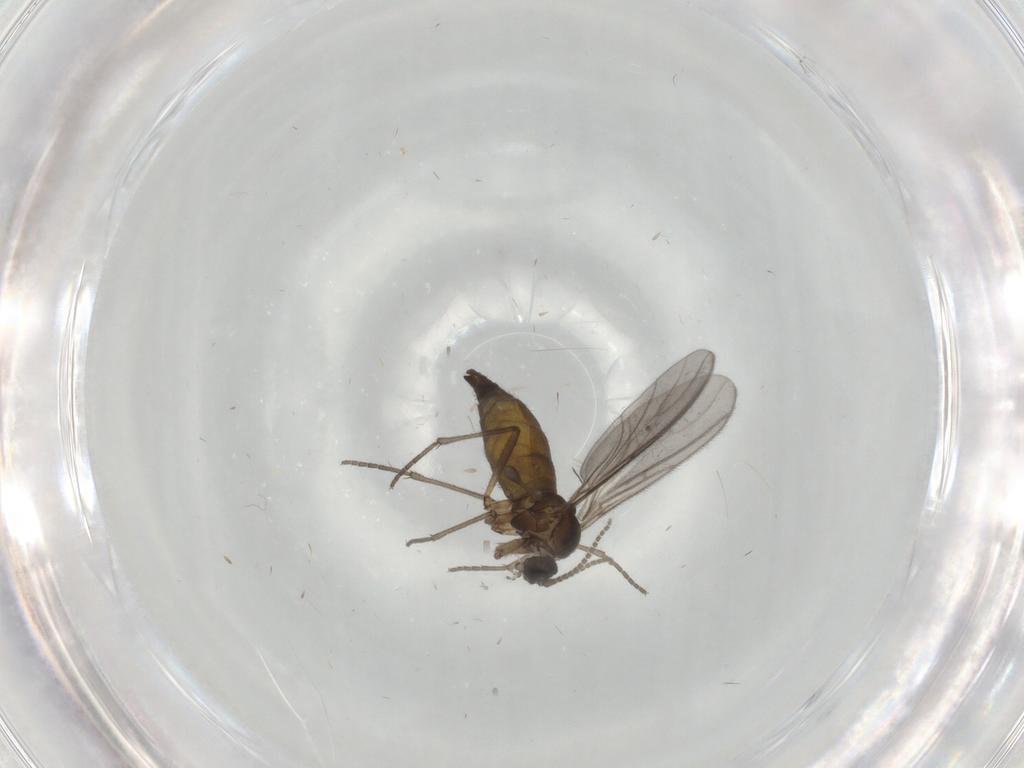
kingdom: Animalia
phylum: Arthropoda
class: Insecta
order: Diptera
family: Sciaridae
